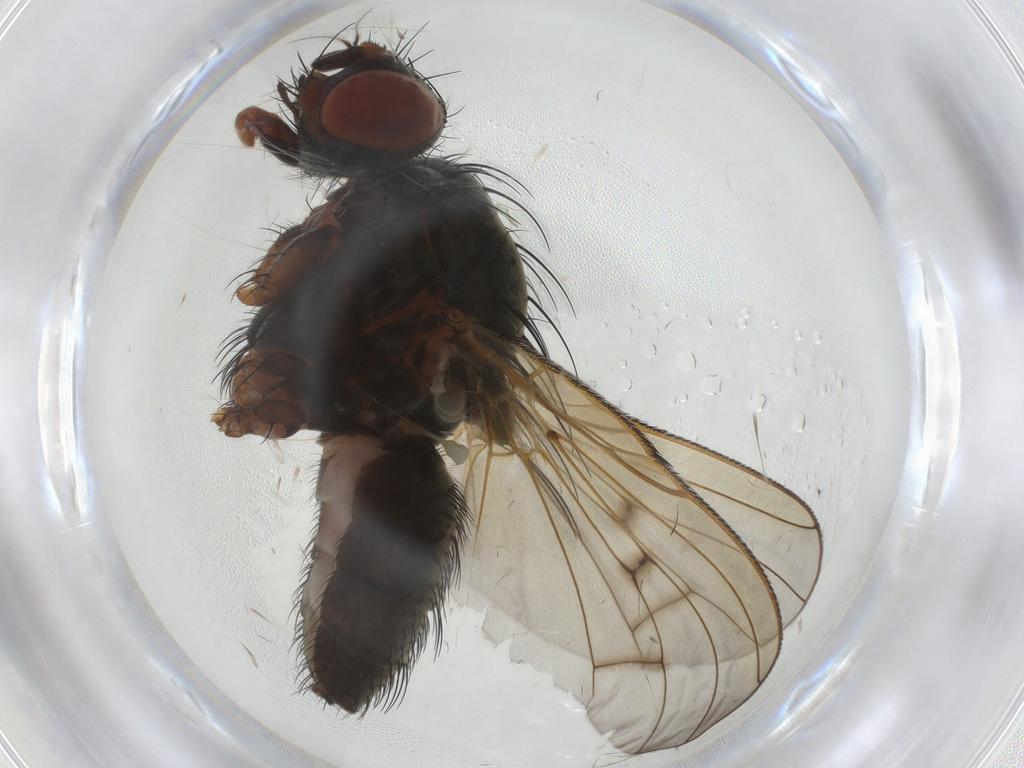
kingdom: Animalia
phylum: Arthropoda
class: Insecta
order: Diptera
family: Anthomyiidae
